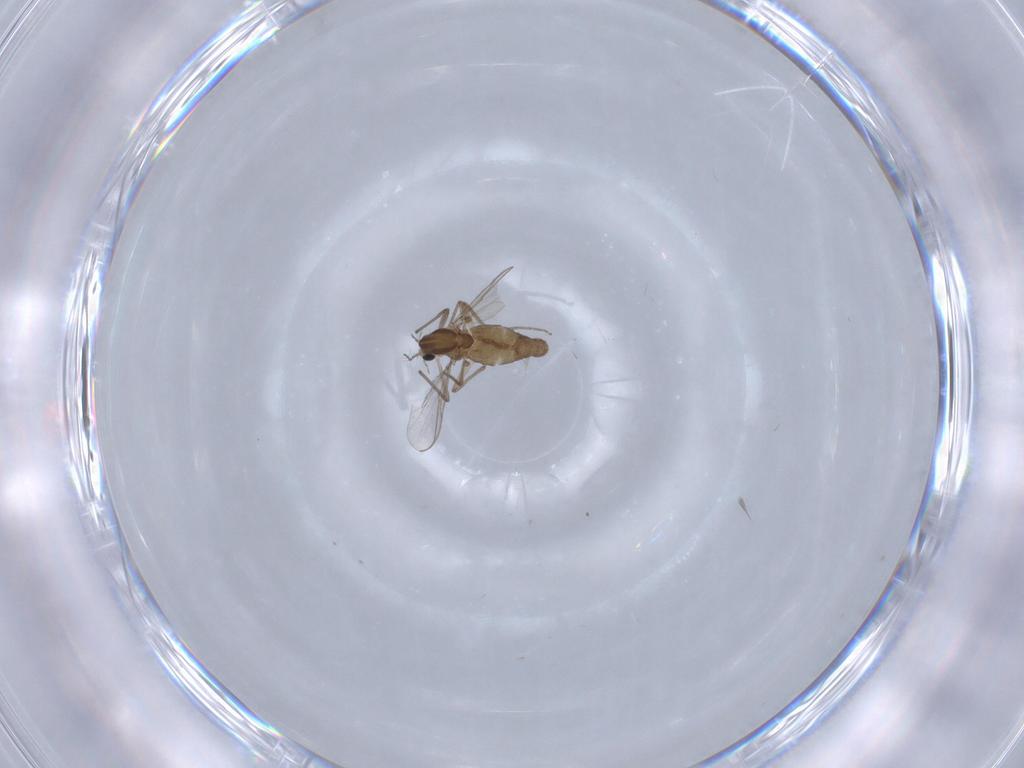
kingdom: Animalia
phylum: Arthropoda
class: Insecta
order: Diptera
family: Chironomidae
